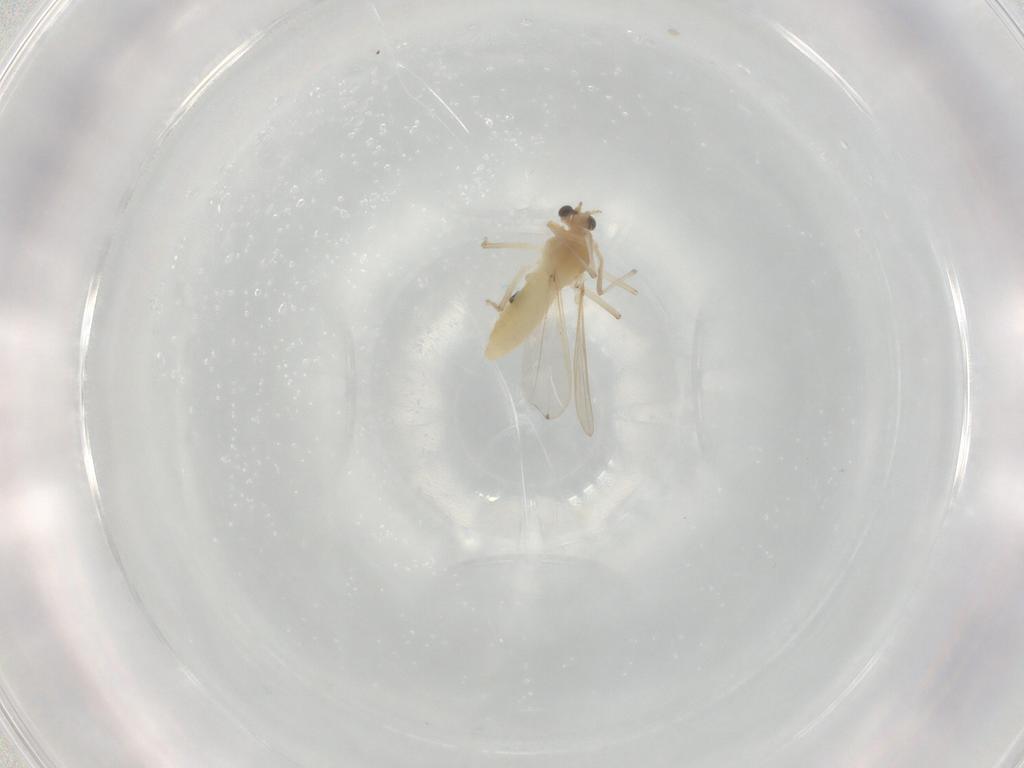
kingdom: Animalia
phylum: Arthropoda
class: Insecta
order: Diptera
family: Chironomidae
